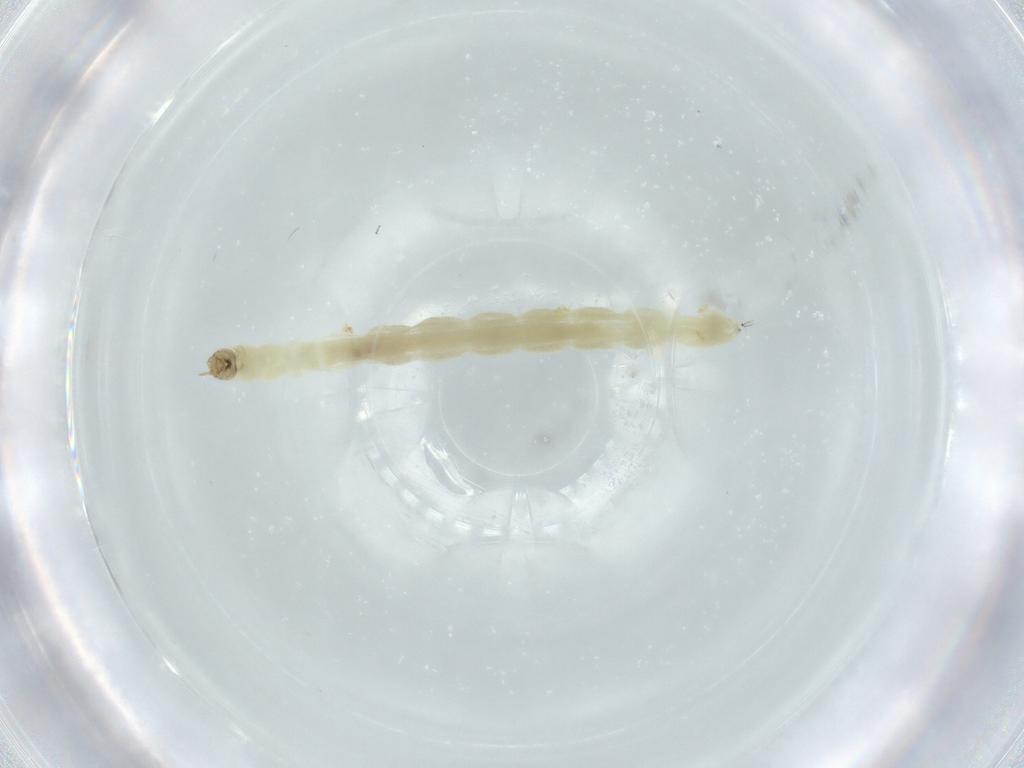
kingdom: Animalia
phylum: Arthropoda
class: Insecta
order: Diptera
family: Chironomidae
